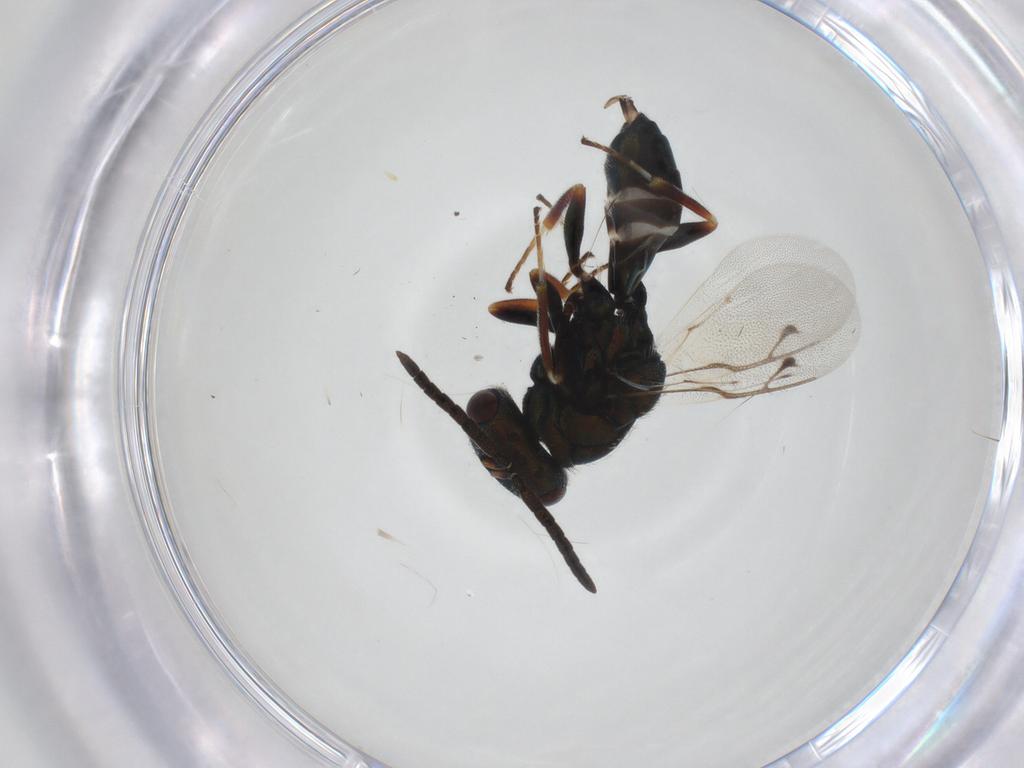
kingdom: Animalia
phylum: Arthropoda
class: Insecta
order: Hymenoptera
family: Pteromalidae
